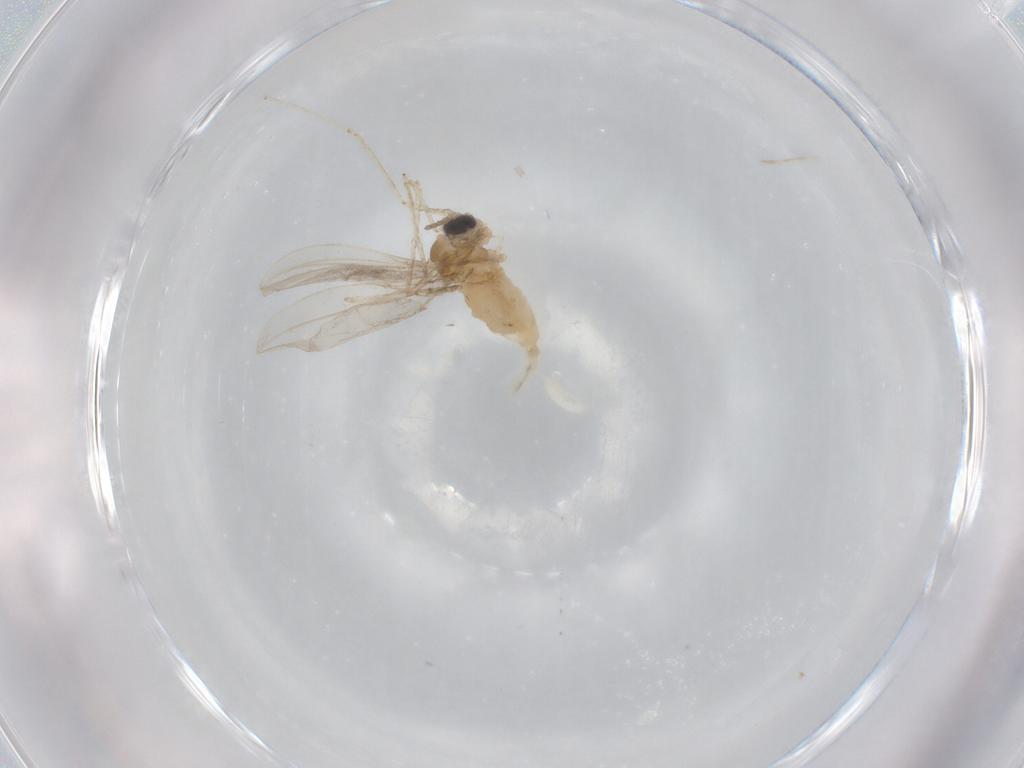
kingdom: Animalia
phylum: Arthropoda
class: Insecta
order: Diptera
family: Cecidomyiidae
